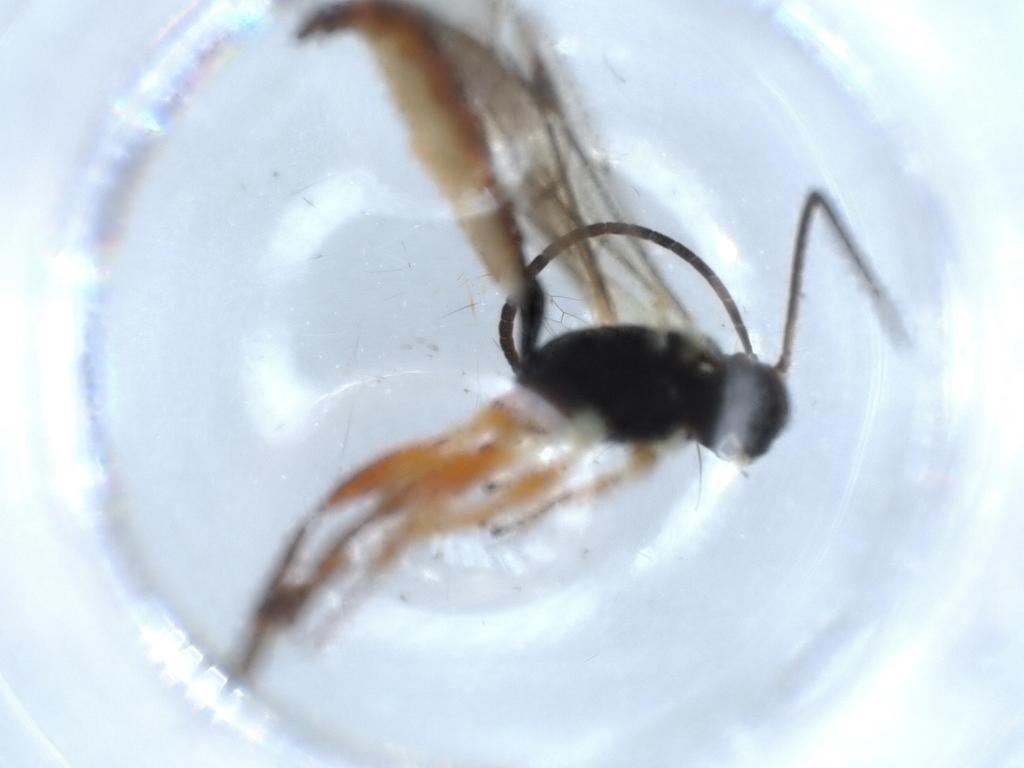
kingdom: Animalia
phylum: Arthropoda
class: Insecta
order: Hymenoptera
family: Ichneumonidae
